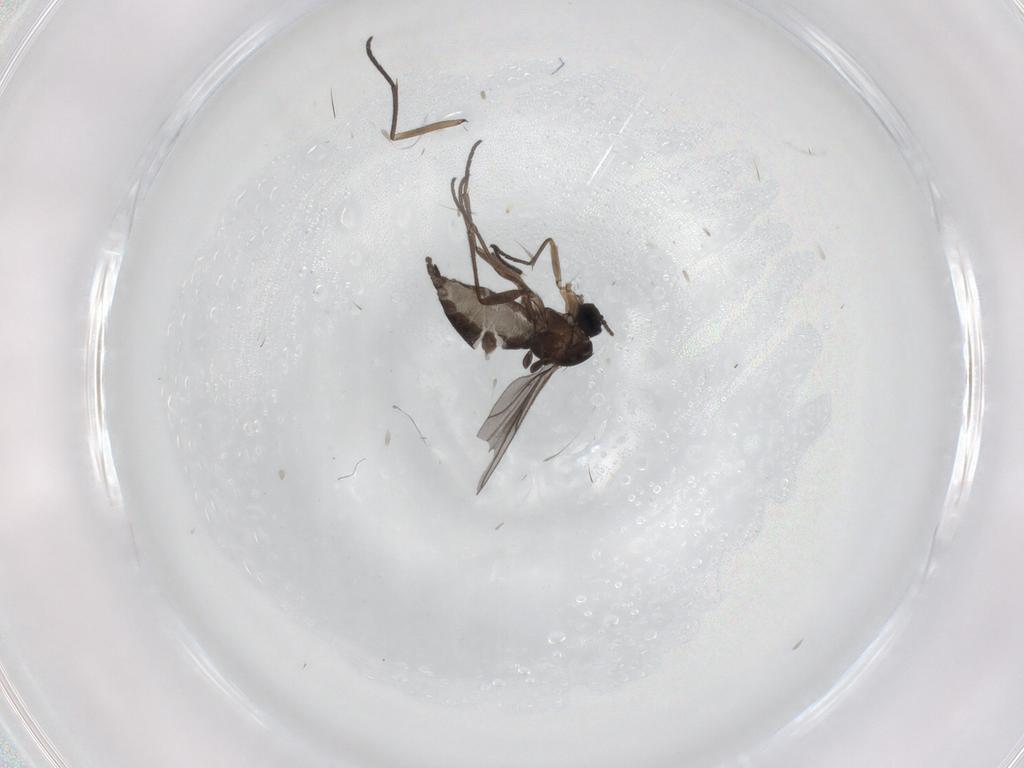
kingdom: Animalia
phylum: Arthropoda
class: Insecta
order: Diptera
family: Sciaridae
